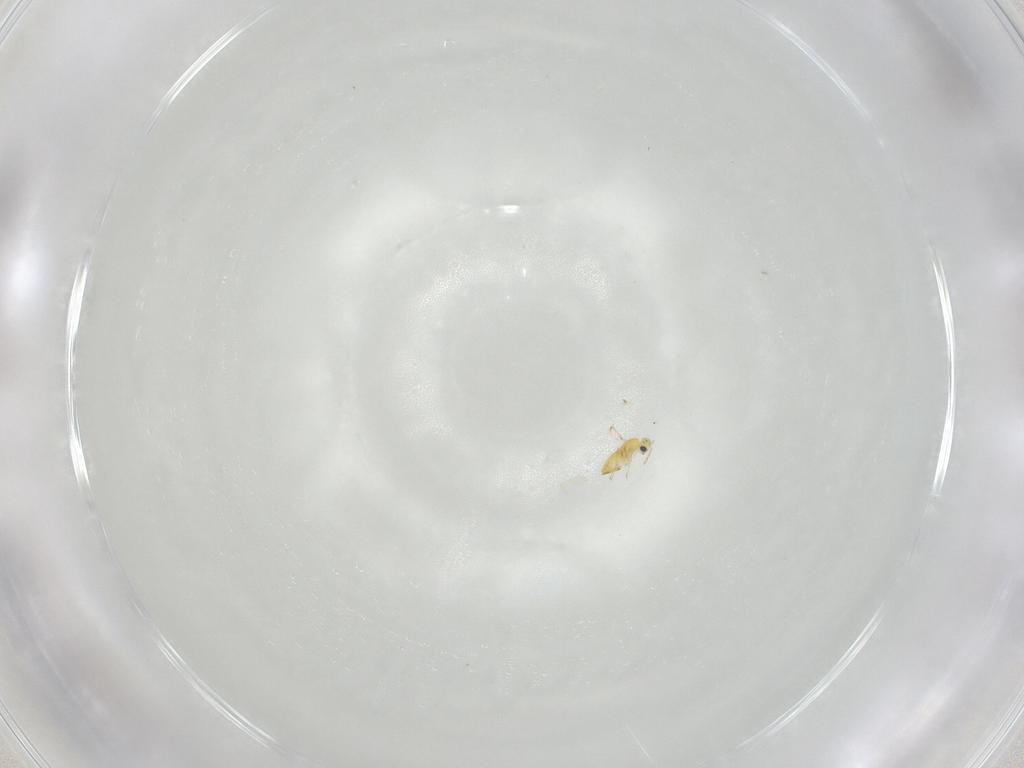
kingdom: Animalia
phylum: Arthropoda
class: Insecta
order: Hymenoptera
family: Trichogrammatidae
